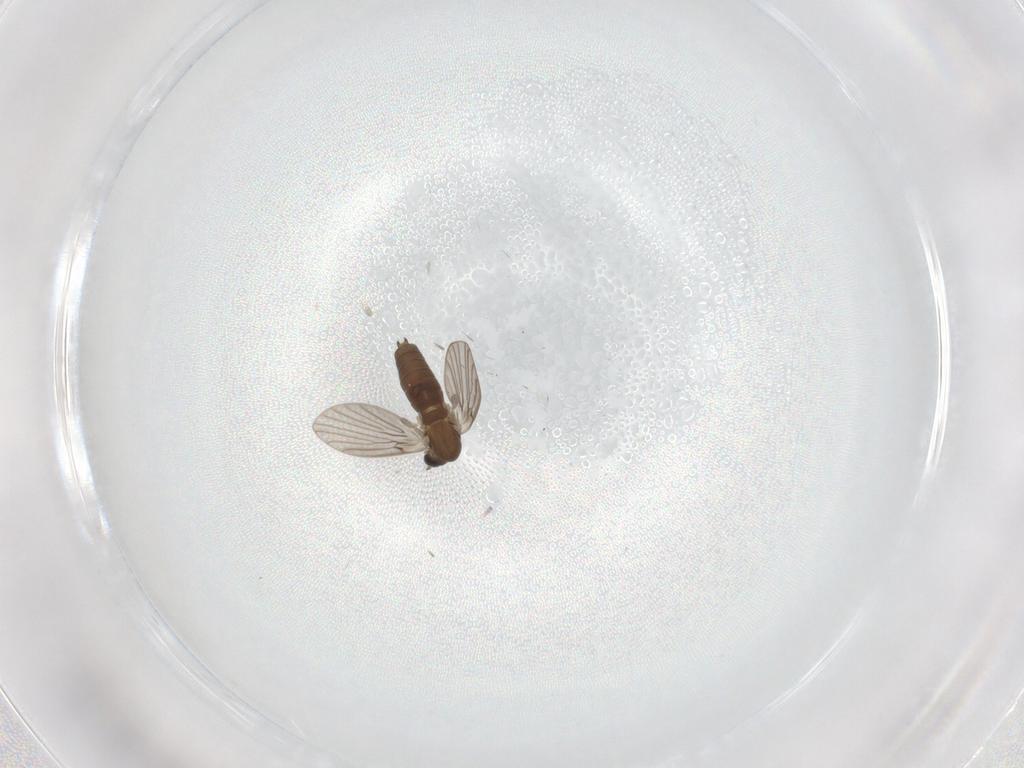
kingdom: Animalia
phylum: Arthropoda
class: Insecta
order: Diptera
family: Psychodidae
